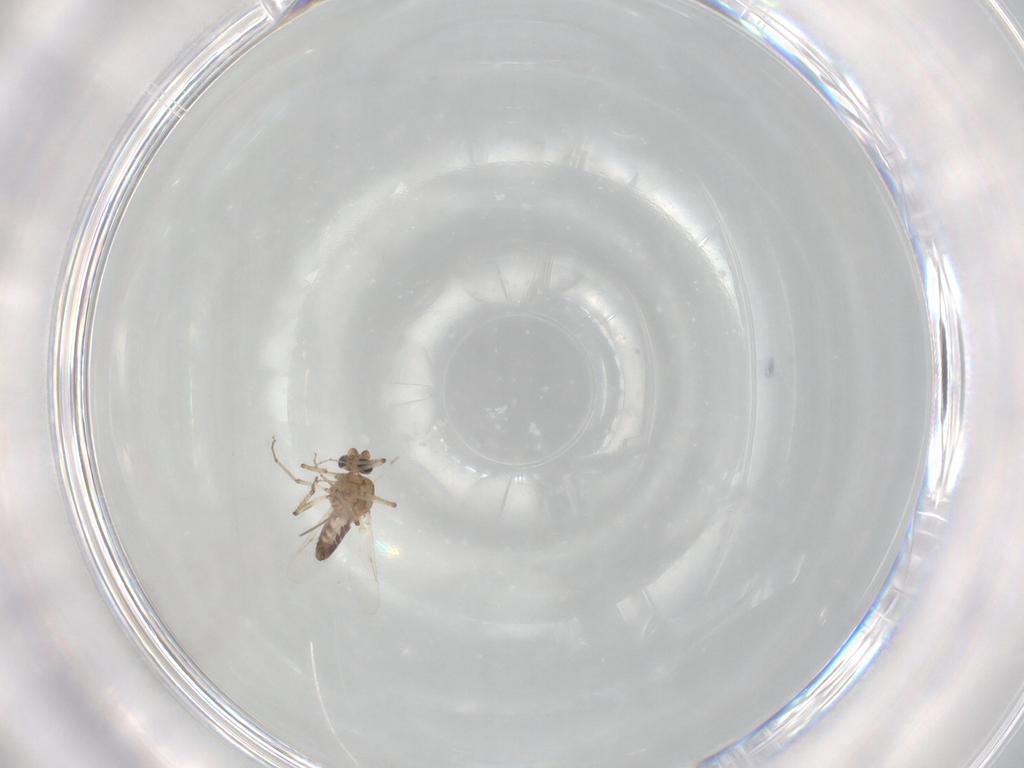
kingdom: Animalia
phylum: Arthropoda
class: Insecta
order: Diptera
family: Ceratopogonidae
